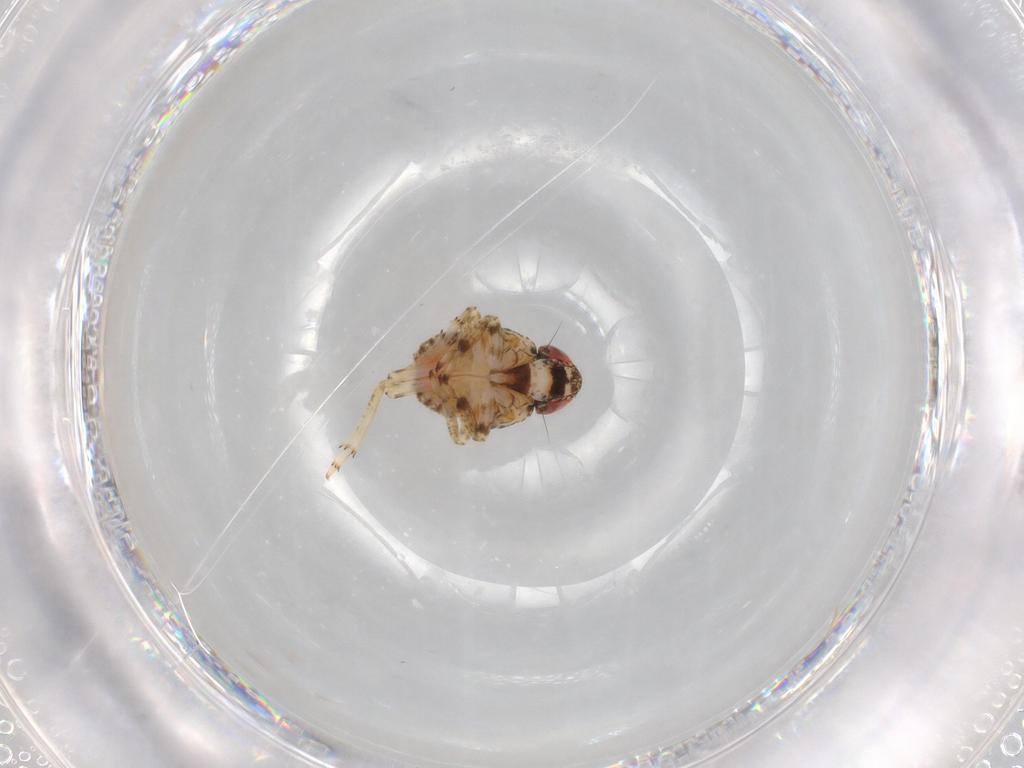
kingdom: Animalia
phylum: Arthropoda
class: Insecta
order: Hemiptera
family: Issidae
